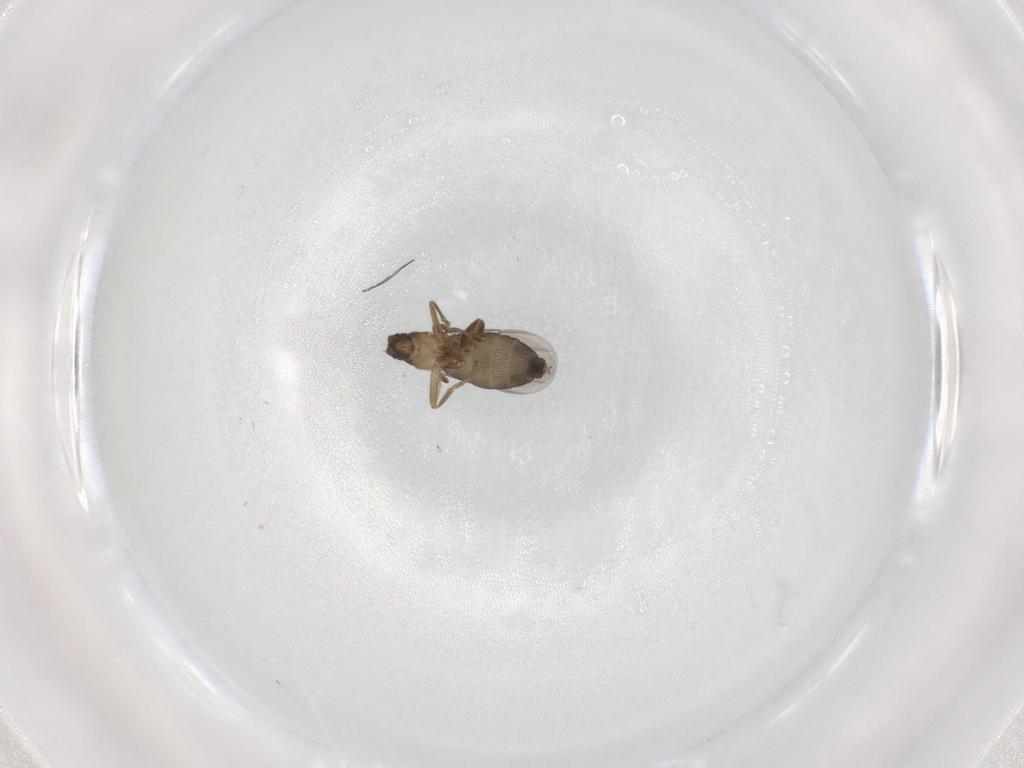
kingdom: Animalia
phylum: Arthropoda
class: Insecta
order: Diptera
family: Phoridae
